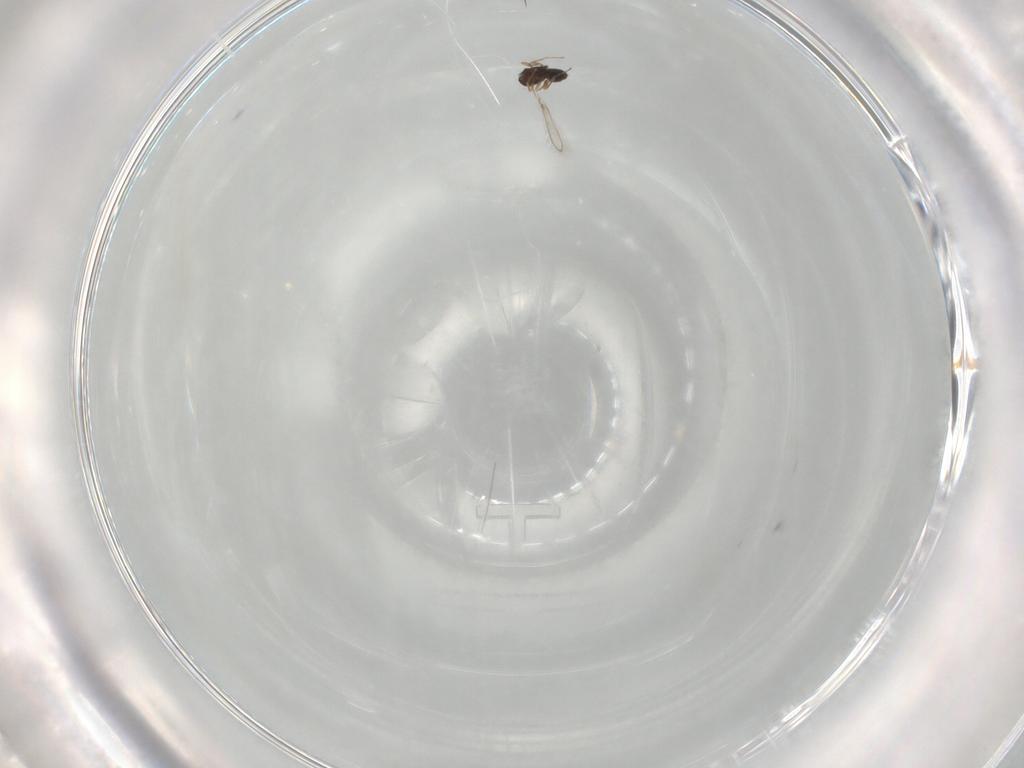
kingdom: Animalia
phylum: Arthropoda
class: Insecta
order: Hymenoptera
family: Mymaridae
